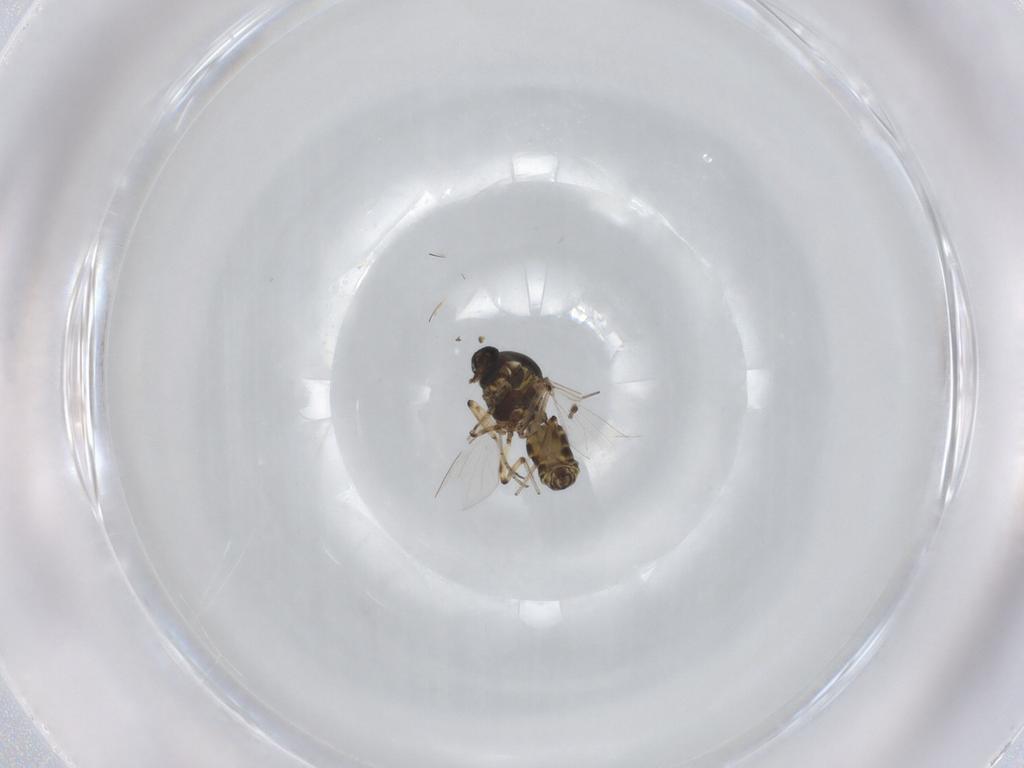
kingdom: Animalia
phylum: Arthropoda
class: Insecta
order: Diptera
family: Ceratopogonidae
